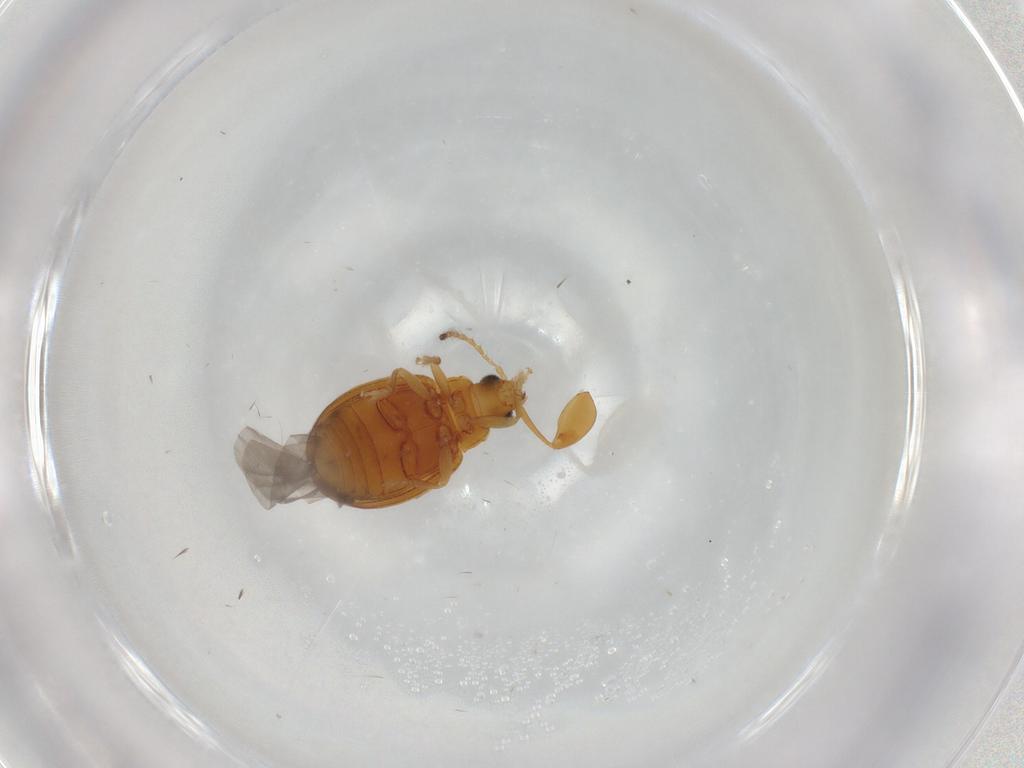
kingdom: Animalia
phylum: Arthropoda
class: Insecta
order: Coleoptera
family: Chrysomelidae
